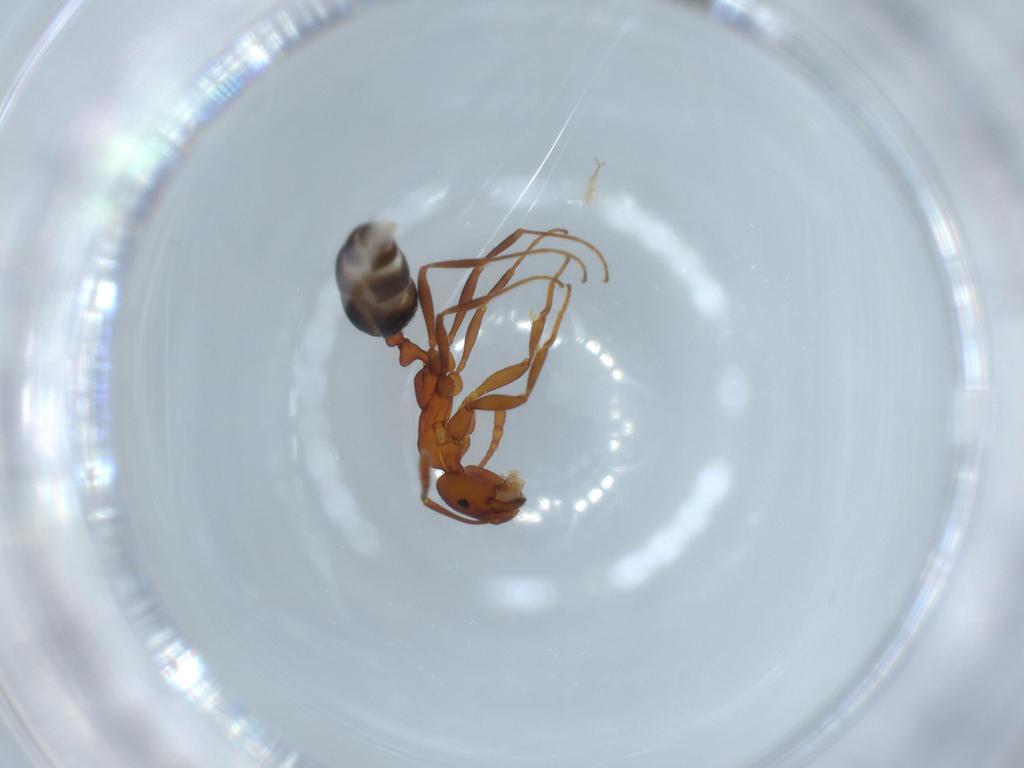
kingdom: Animalia
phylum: Arthropoda
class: Insecta
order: Hymenoptera
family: Formicidae
